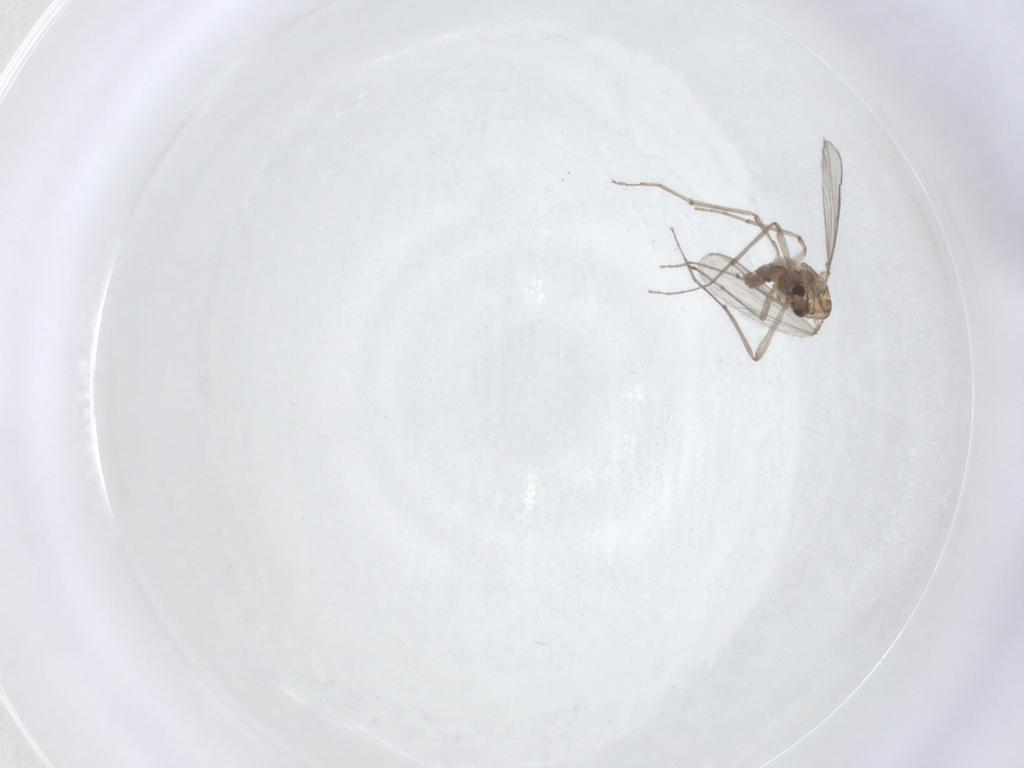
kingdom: Animalia
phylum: Arthropoda
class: Insecta
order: Diptera
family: Chironomidae
